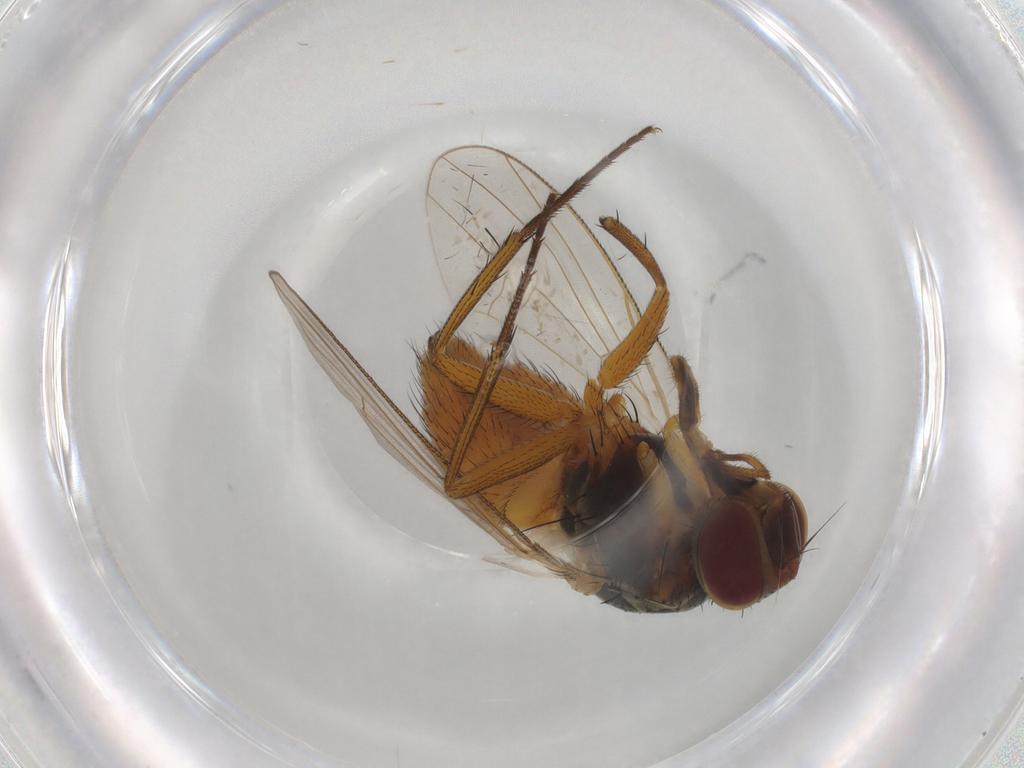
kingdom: Animalia
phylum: Arthropoda
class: Insecta
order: Diptera
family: Muscidae
